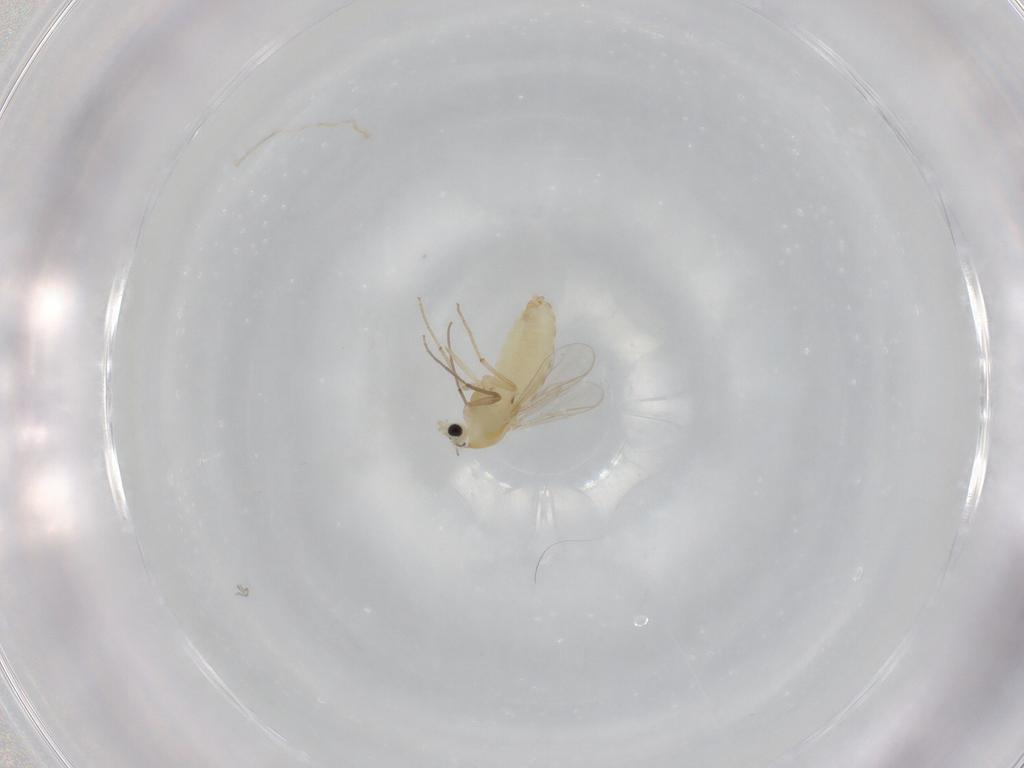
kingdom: Animalia
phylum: Arthropoda
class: Insecta
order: Diptera
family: Chironomidae
